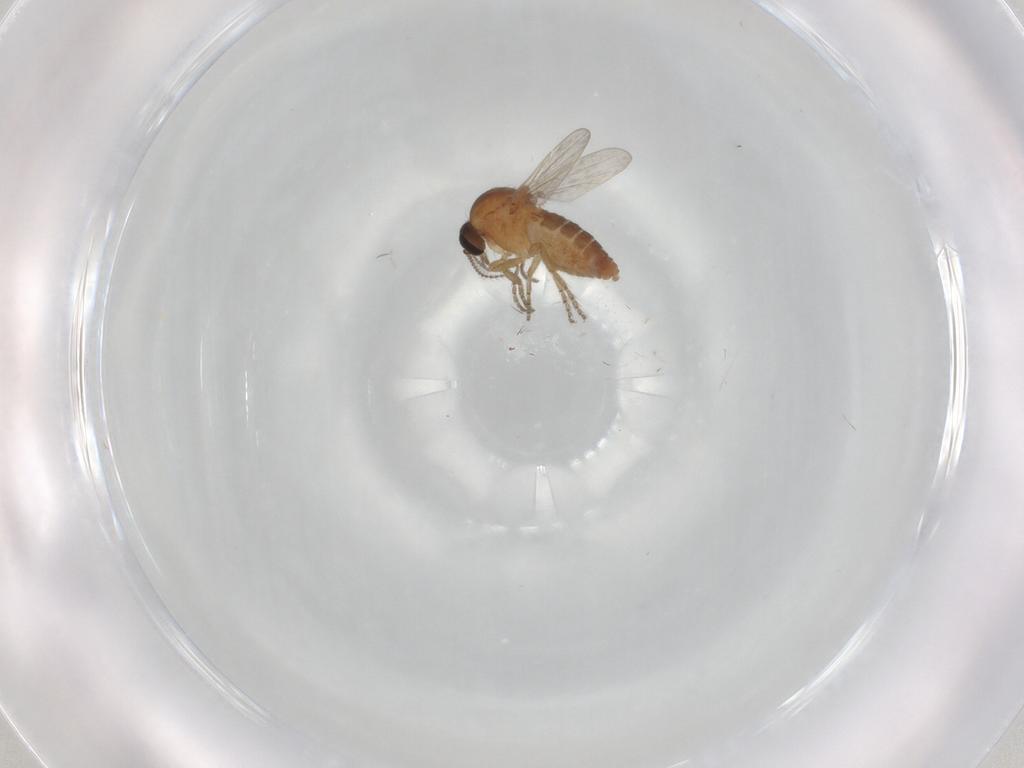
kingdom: Animalia
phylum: Arthropoda
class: Insecta
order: Diptera
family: Ceratopogonidae
